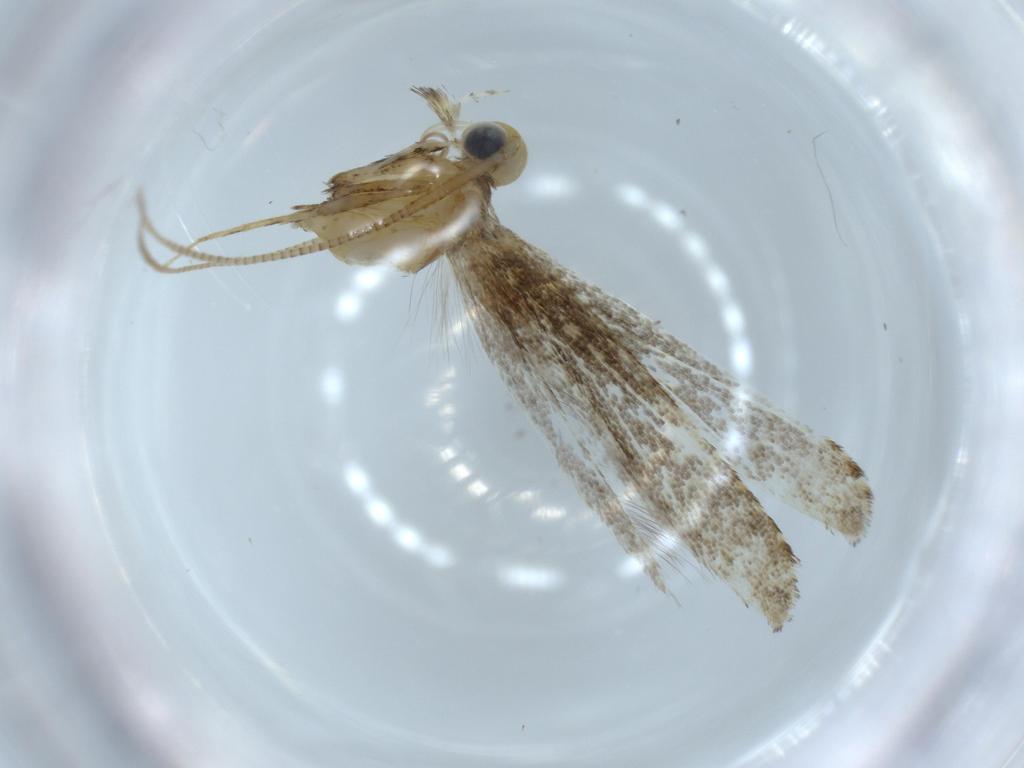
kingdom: Animalia
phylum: Arthropoda
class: Insecta
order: Lepidoptera
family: Gracillariidae
